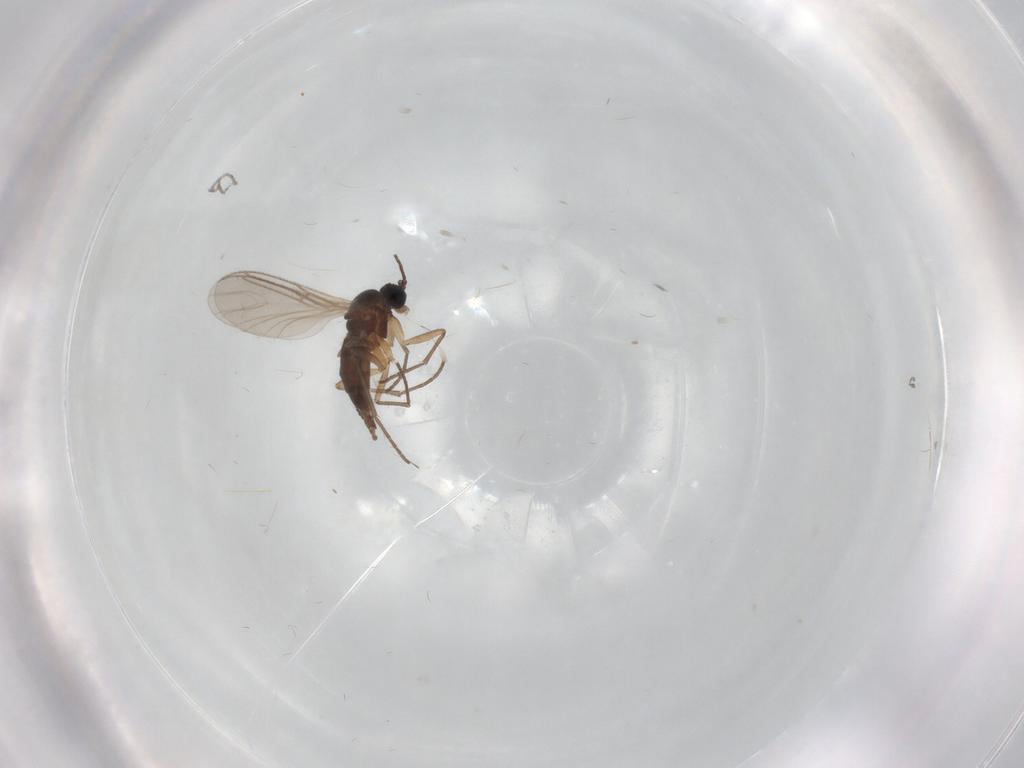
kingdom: Animalia
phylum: Arthropoda
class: Insecta
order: Diptera
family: Sciaridae
